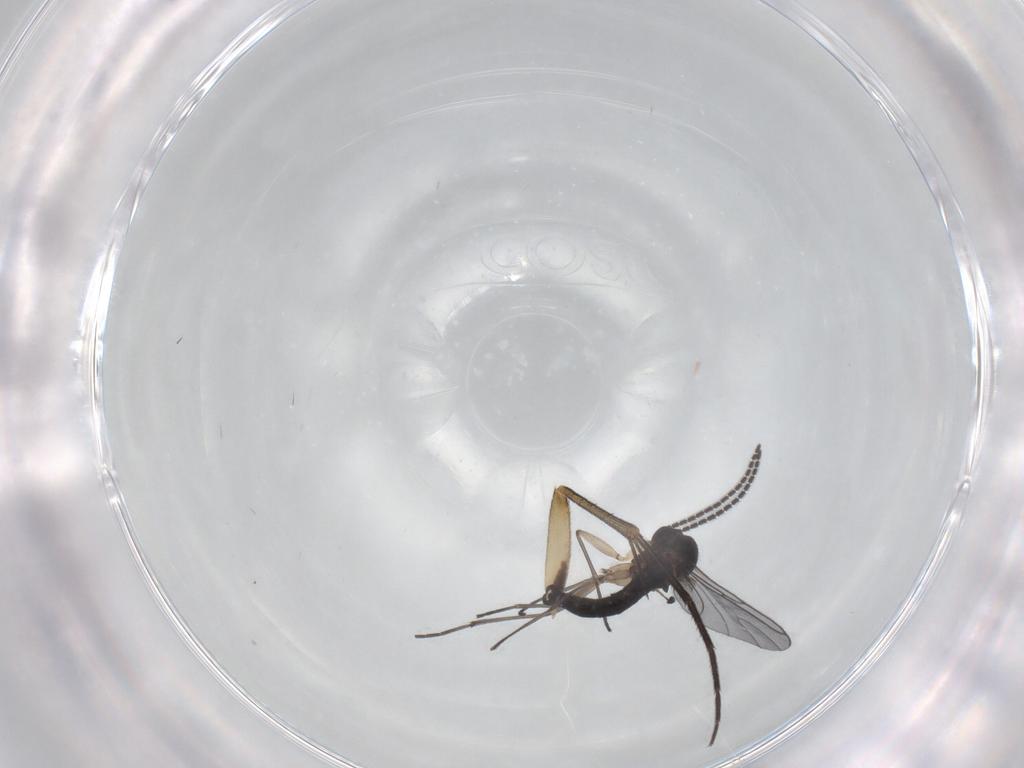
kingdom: Animalia
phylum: Arthropoda
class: Insecta
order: Diptera
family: Sciaridae
